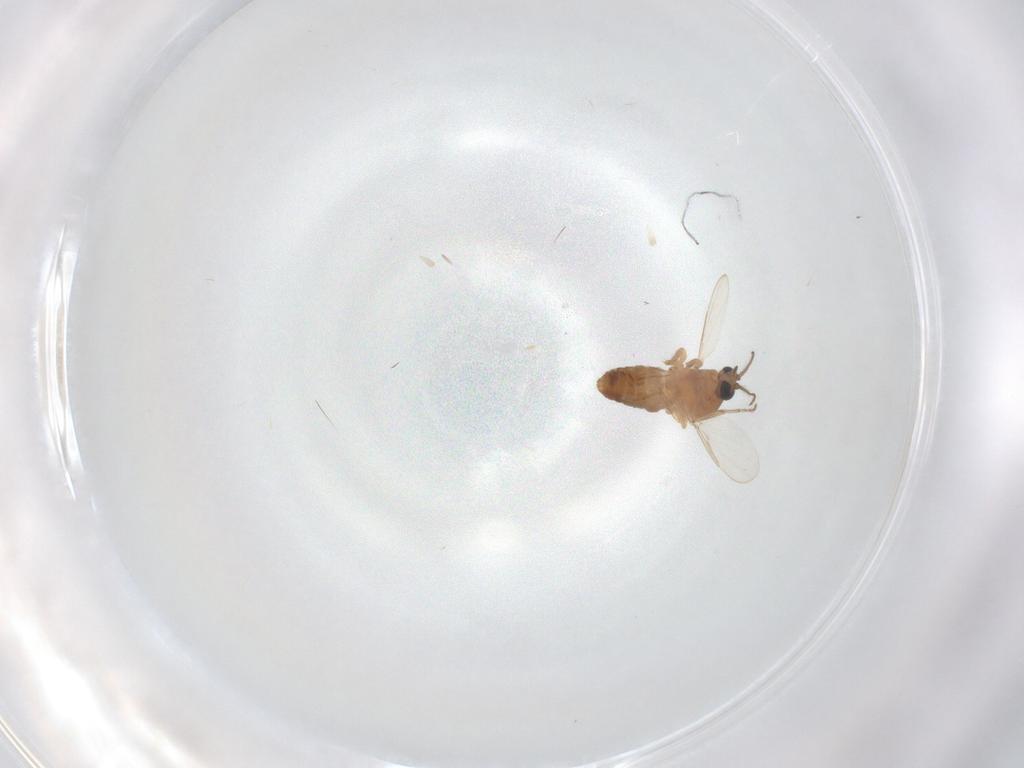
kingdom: Animalia
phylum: Arthropoda
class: Insecta
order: Diptera
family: Ceratopogonidae
